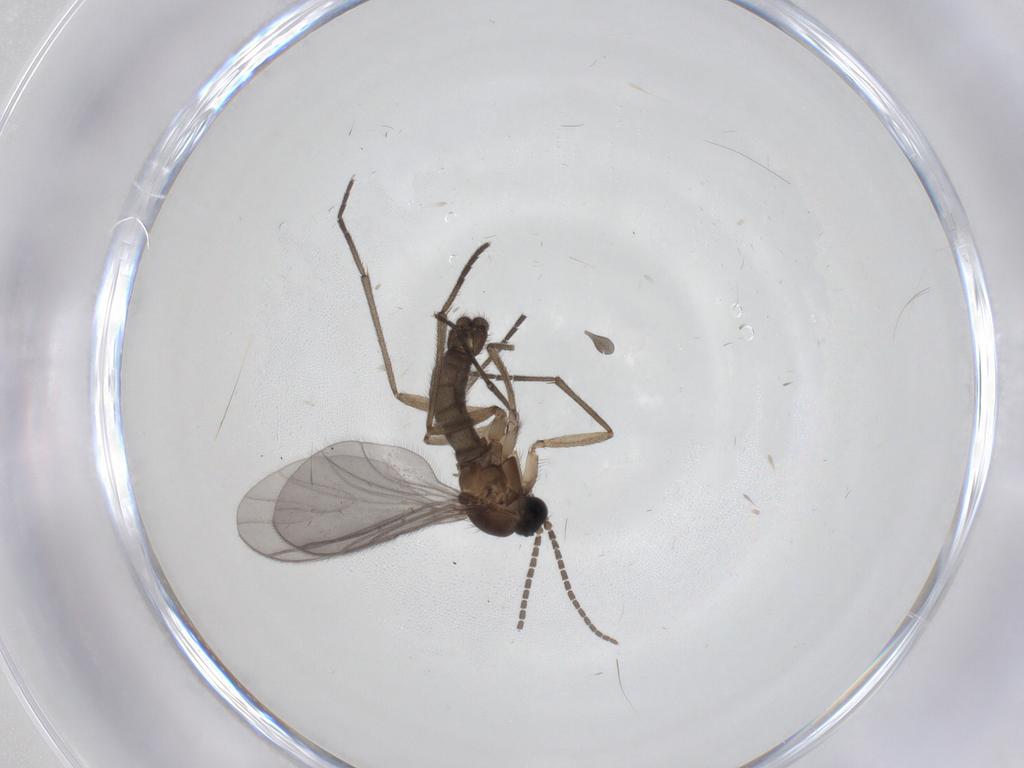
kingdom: Animalia
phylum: Arthropoda
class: Insecta
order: Diptera
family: Sciaridae
